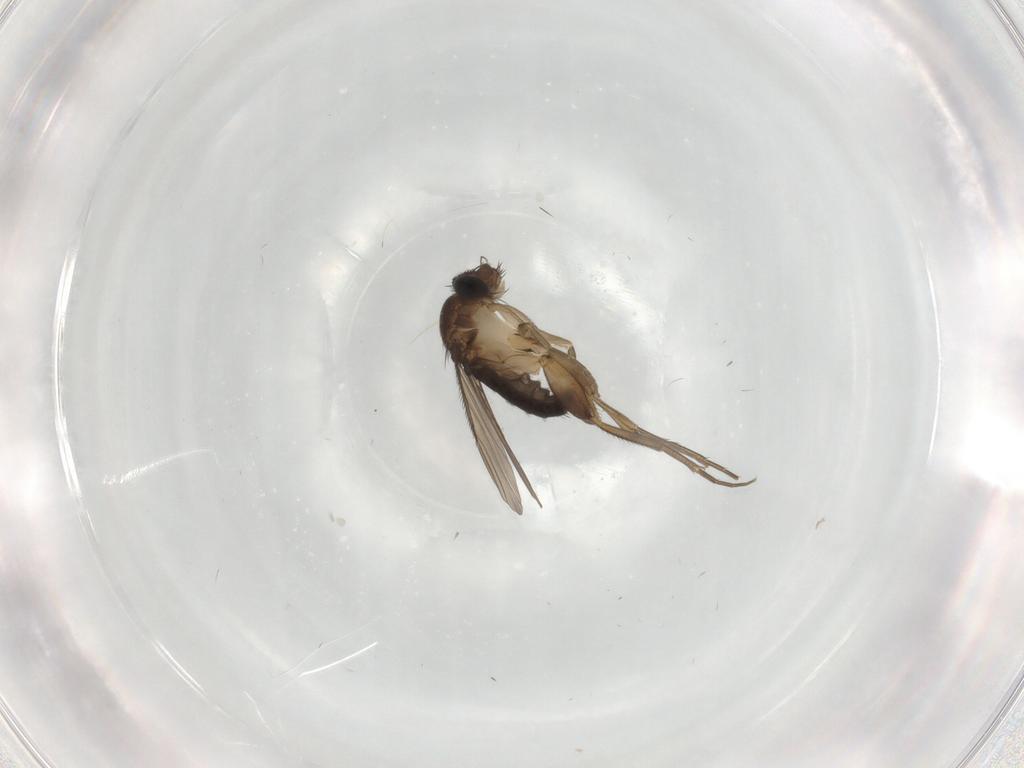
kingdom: Animalia
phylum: Arthropoda
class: Insecta
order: Diptera
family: Phoridae
